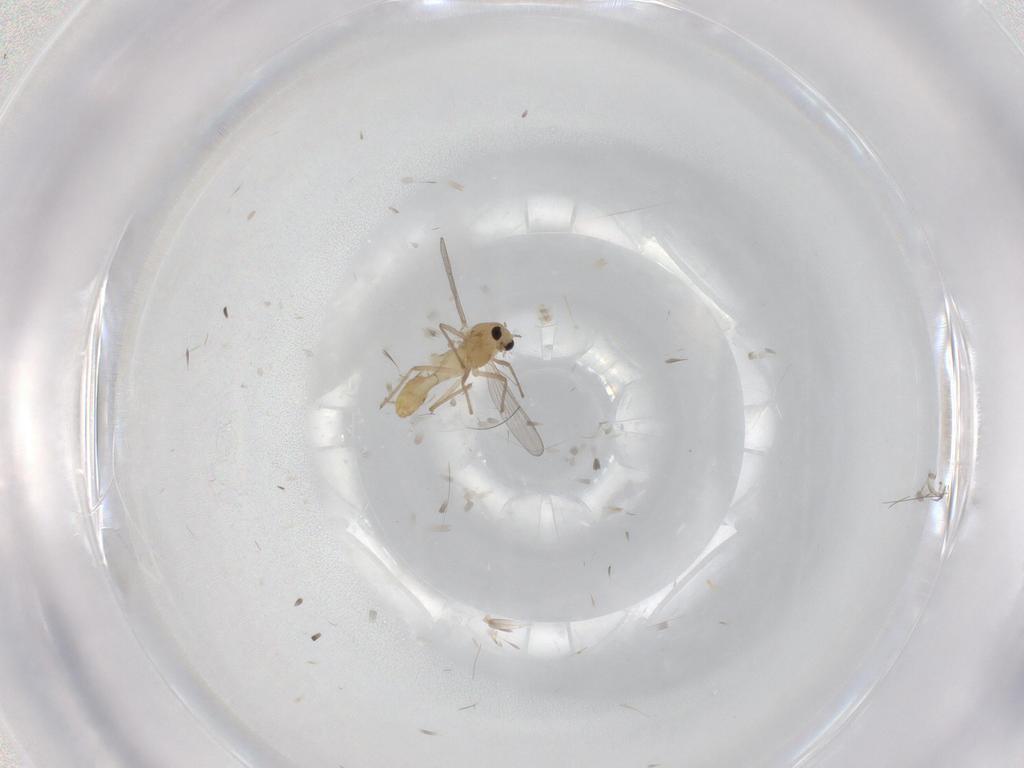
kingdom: Animalia
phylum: Arthropoda
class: Insecta
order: Diptera
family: Chironomidae
